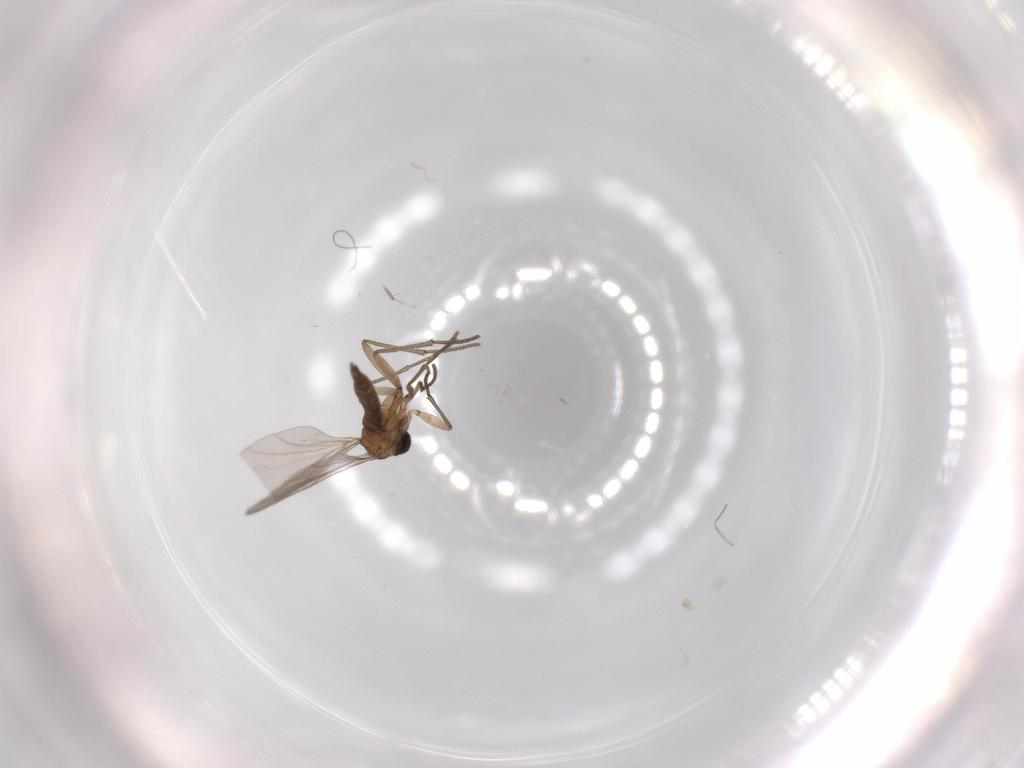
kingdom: Animalia
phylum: Arthropoda
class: Insecta
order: Diptera
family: Sciaridae
